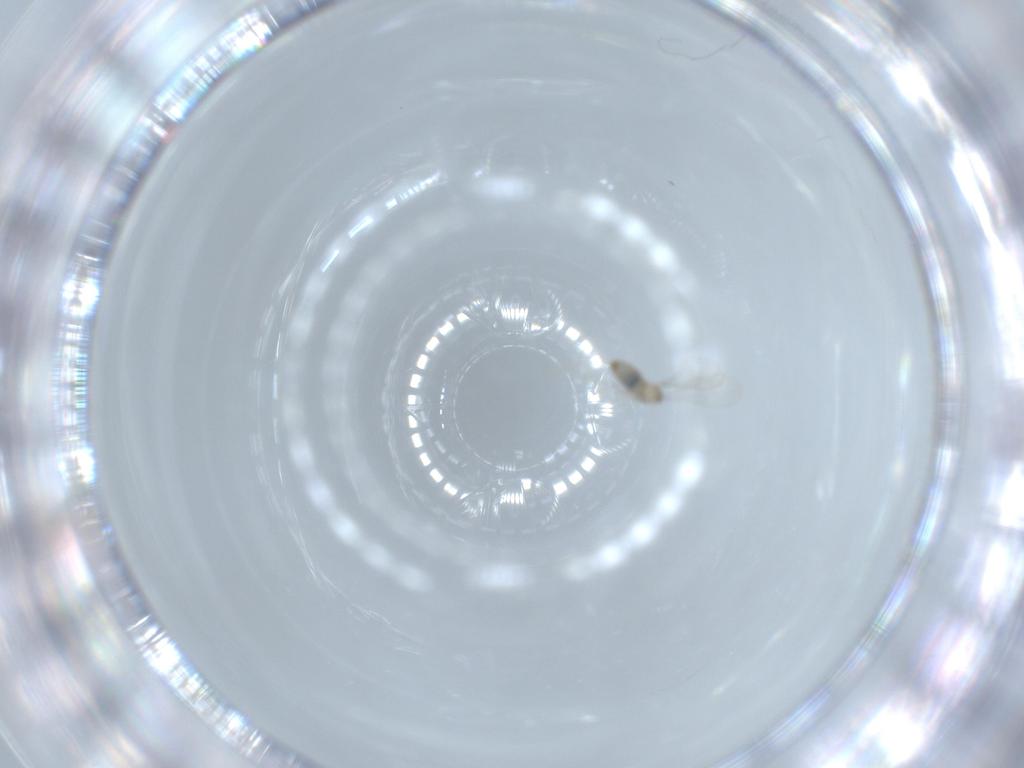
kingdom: Animalia
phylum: Arthropoda
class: Insecta
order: Diptera
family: Cecidomyiidae
